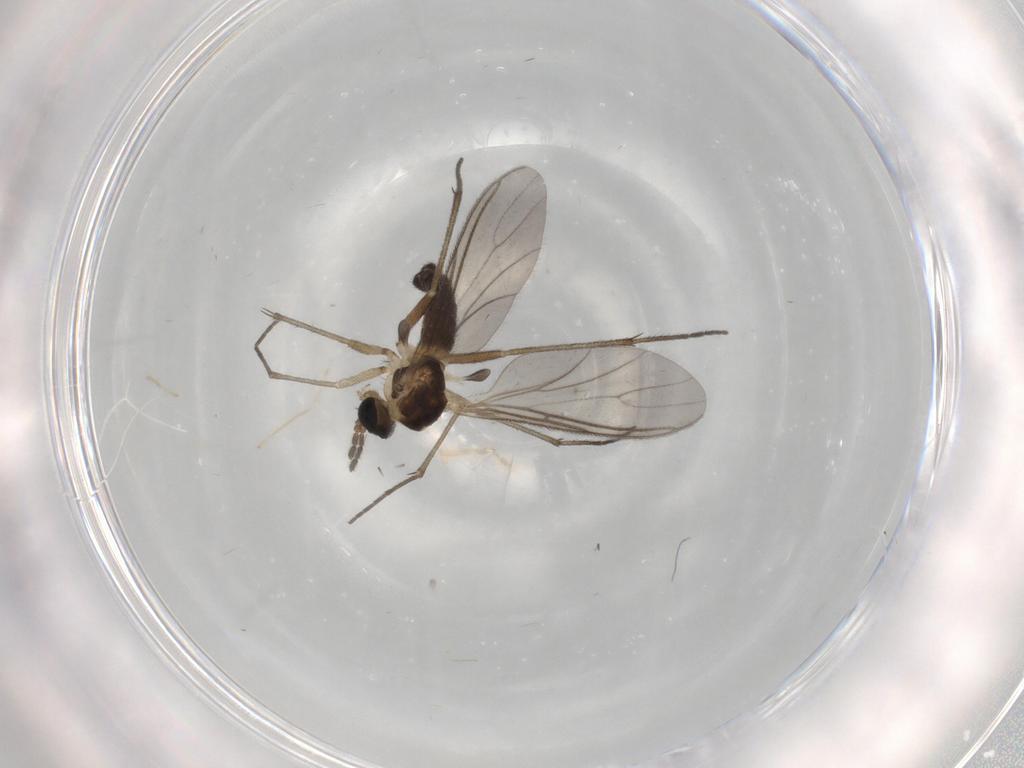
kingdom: Animalia
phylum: Arthropoda
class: Insecta
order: Diptera
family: Sciaridae
